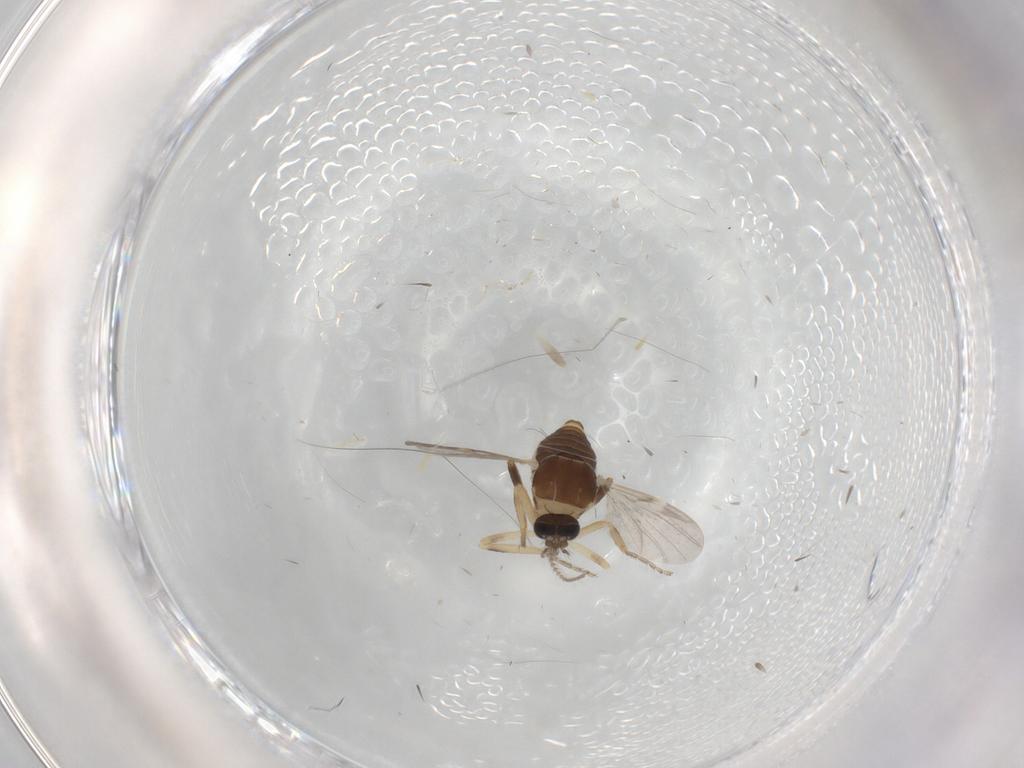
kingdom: Animalia
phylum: Arthropoda
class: Insecta
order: Diptera
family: Ceratopogonidae
